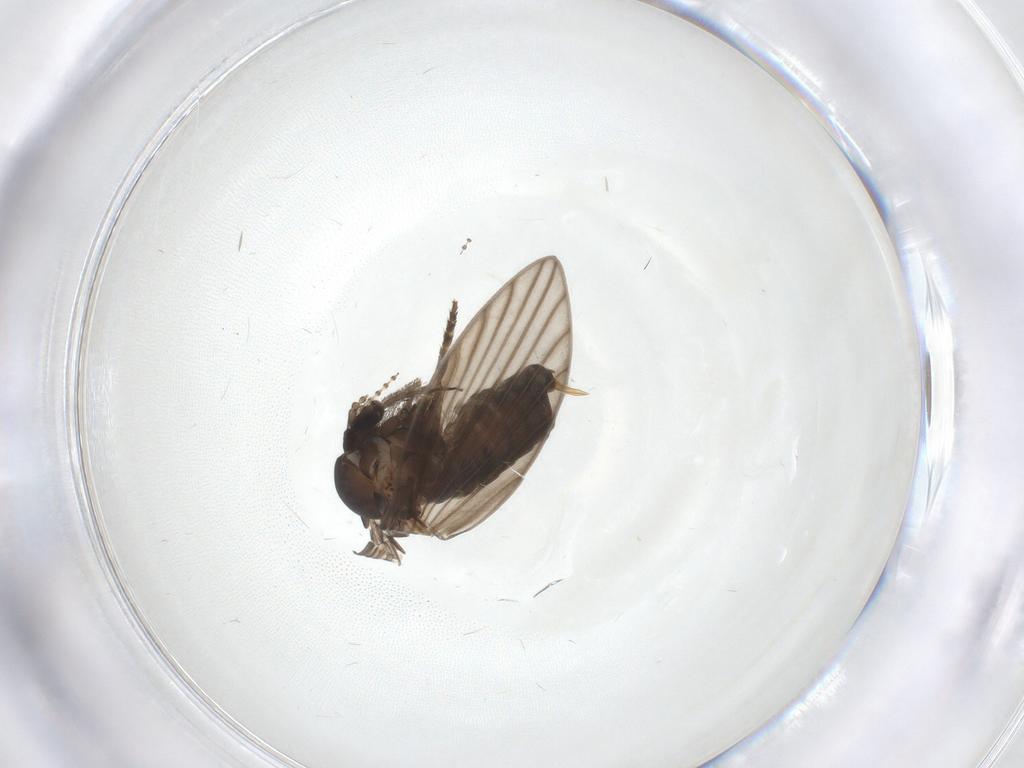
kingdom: Animalia
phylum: Arthropoda
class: Insecta
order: Diptera
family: Psychodidae
